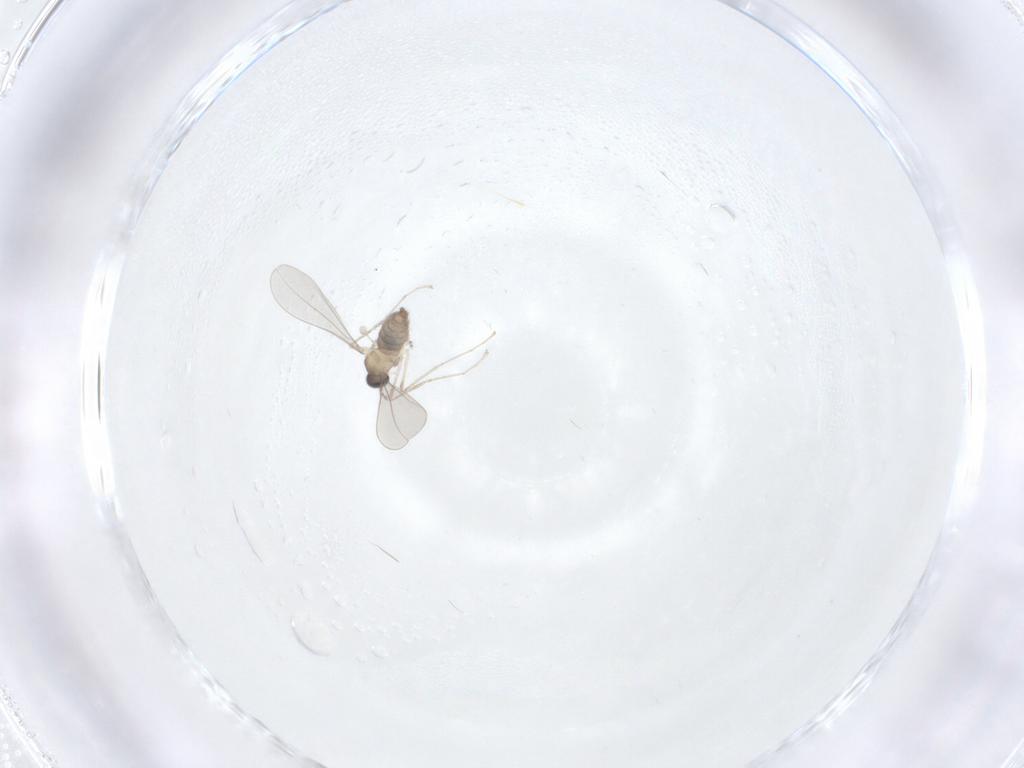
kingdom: Animalia
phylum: Arthropoda
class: Insecta
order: Diptera
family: Cecidomyiidae
